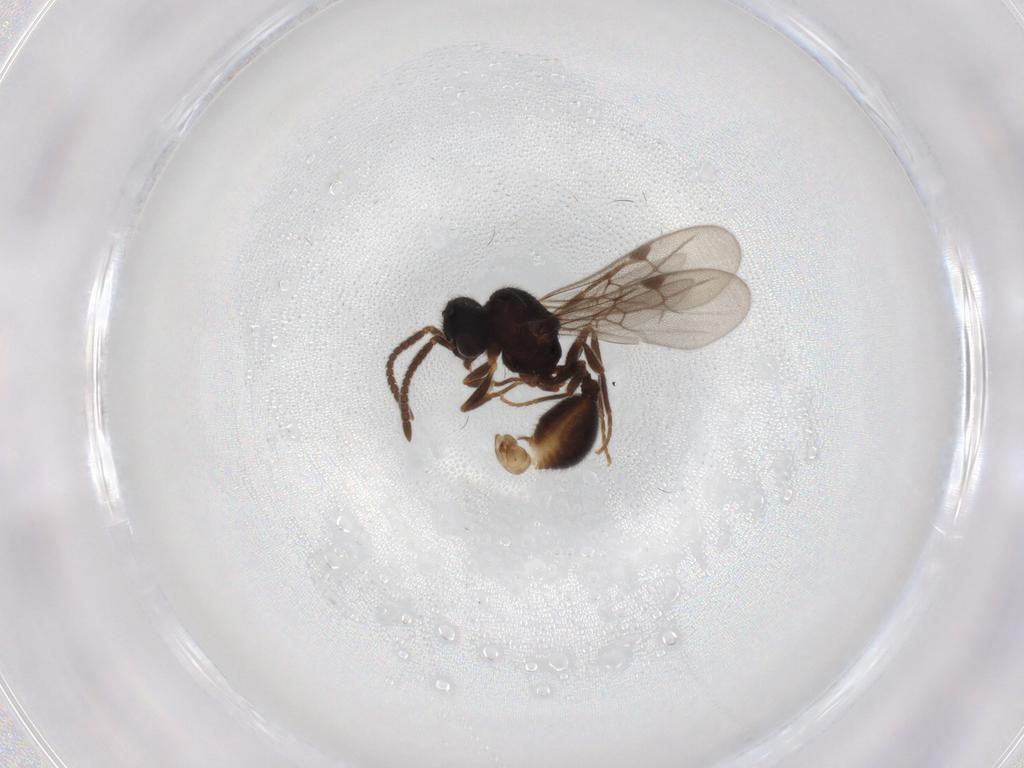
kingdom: Animalia
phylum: Arthropoda
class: Insecta
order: Hymenoptera
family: Formicidae
